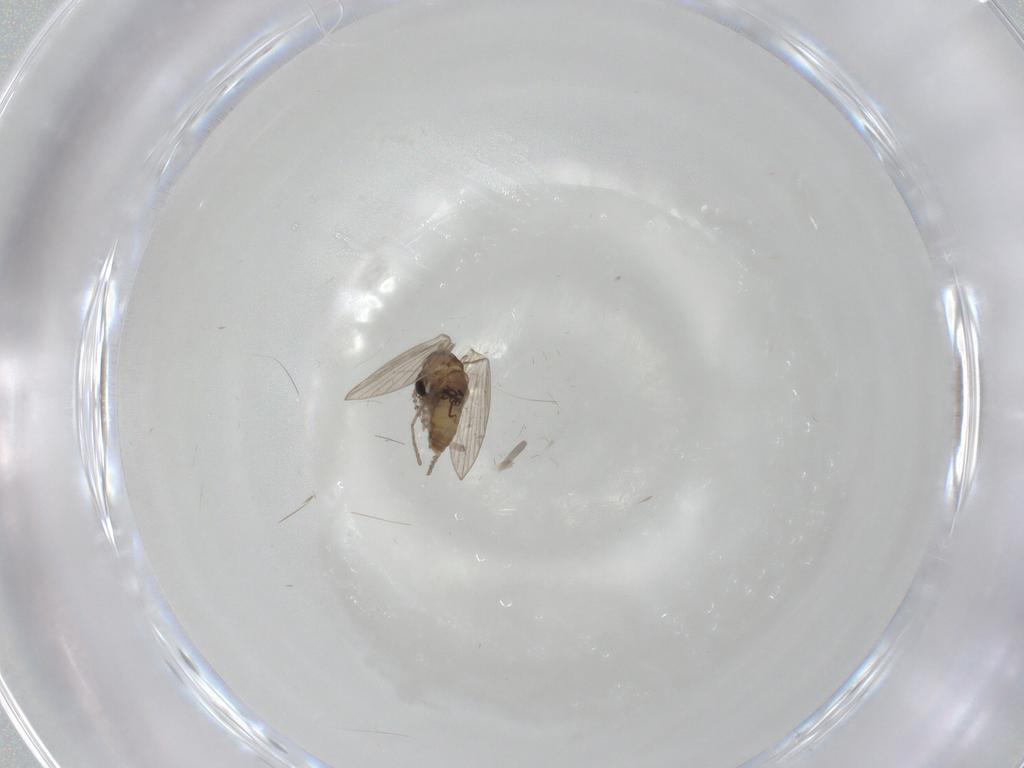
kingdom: Animalia
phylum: Arthropoda
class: Insecta
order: Diptera
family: Psychodidae
